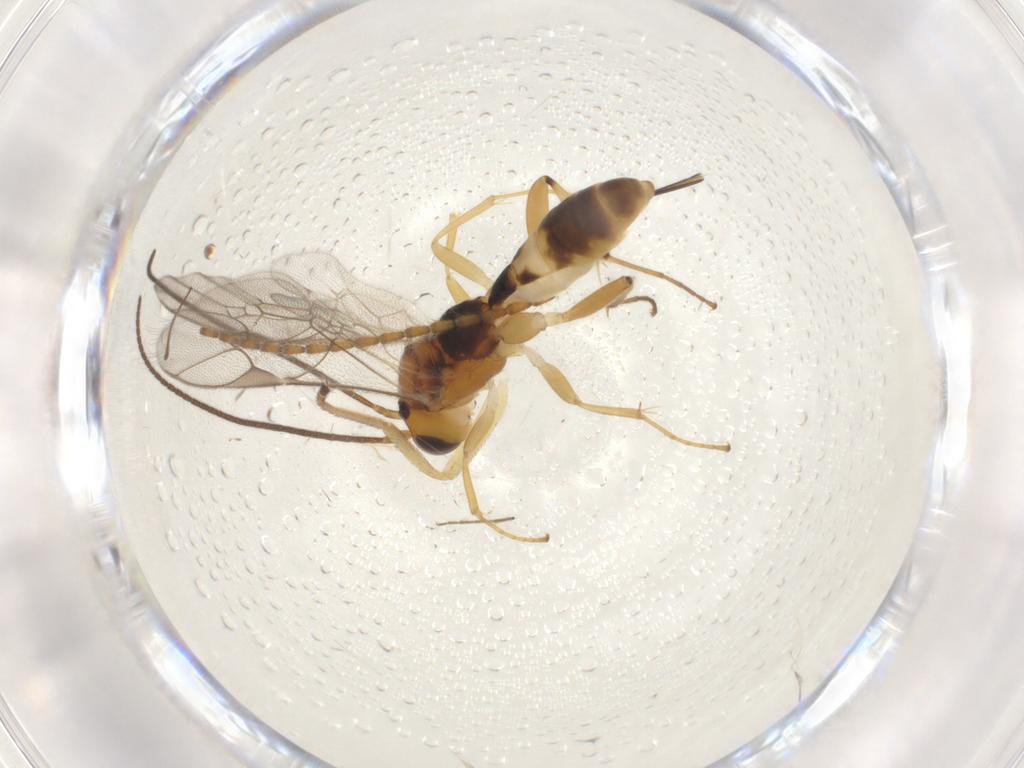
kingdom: Animalia
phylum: Arthropoda
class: Insecta
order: Hymenoptera
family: Ichneumonidae
